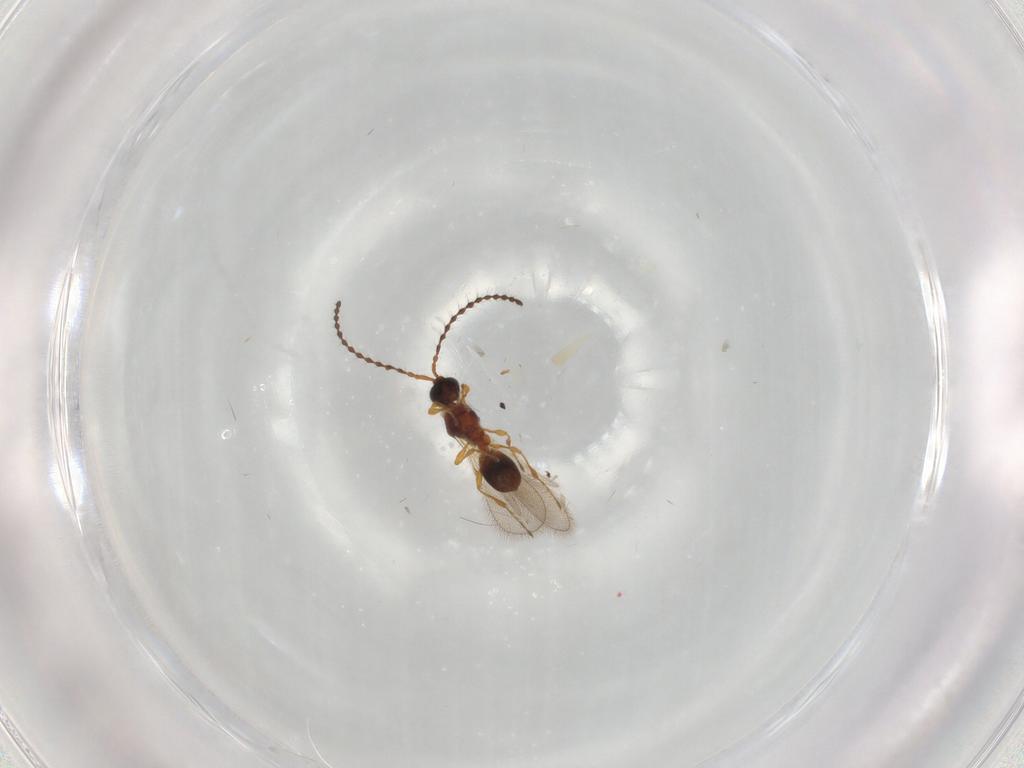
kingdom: Animalia
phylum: Arthropoda
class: Insecta
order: Hymenoptera
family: Diapriidae
